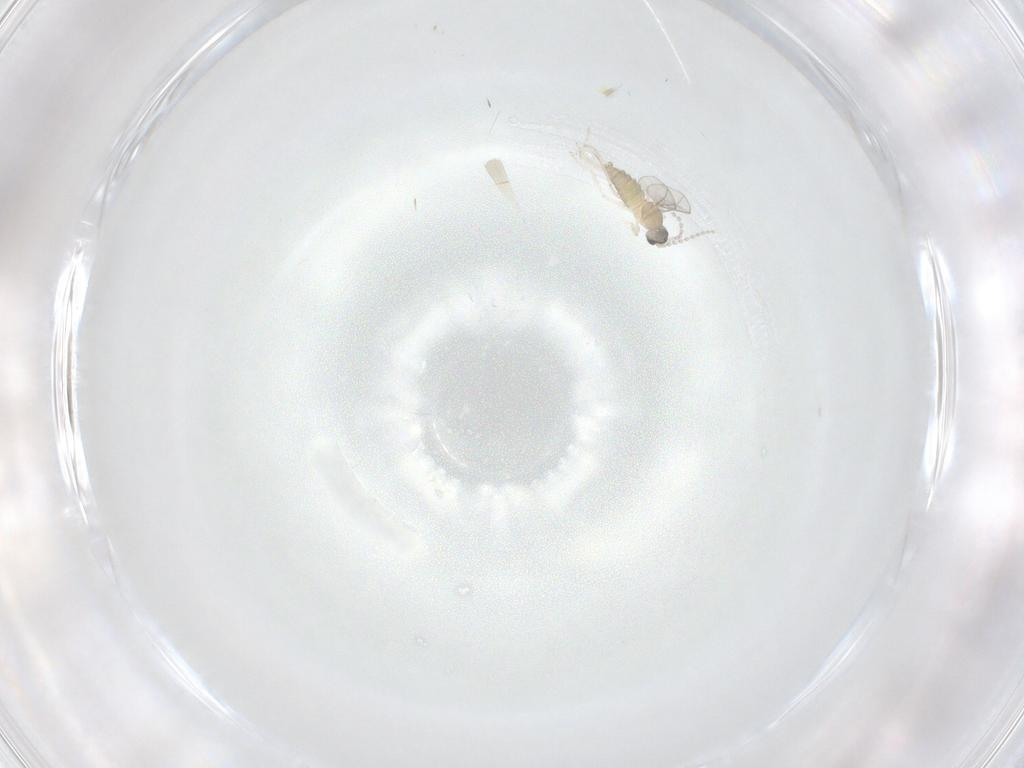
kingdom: Animalia
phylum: Arthropoda
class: Insecta
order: Diptera
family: Cecidomyiidae
